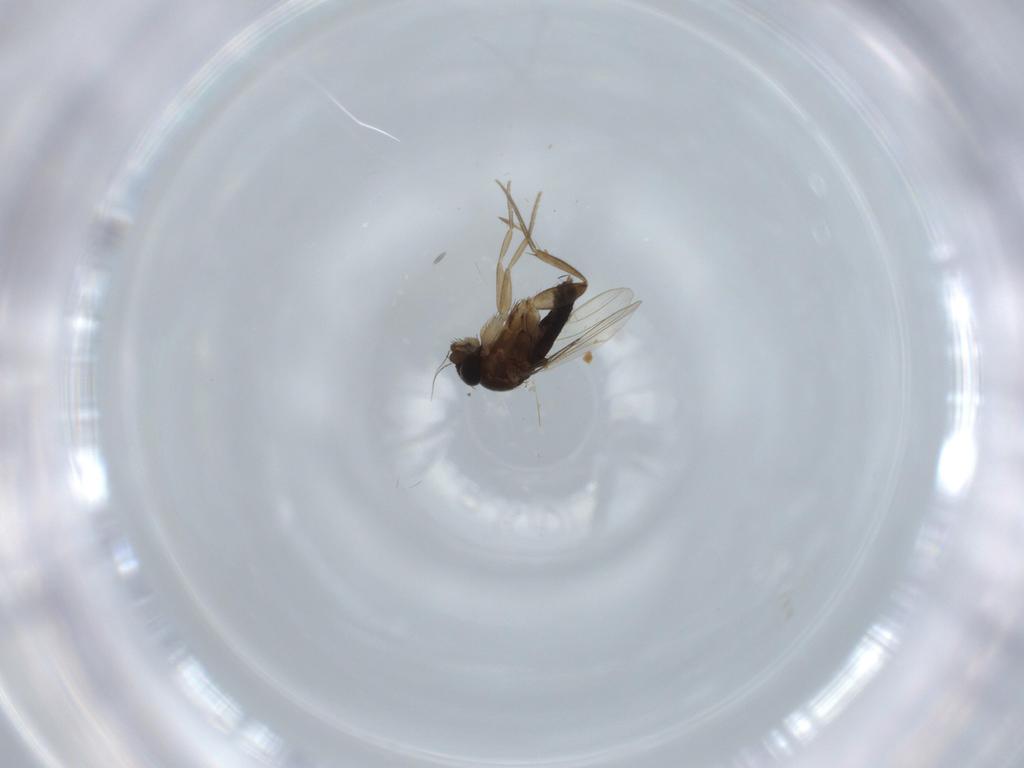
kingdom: Animalia
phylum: Arthropoda
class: Insecta
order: Diptera
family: Phoridae
